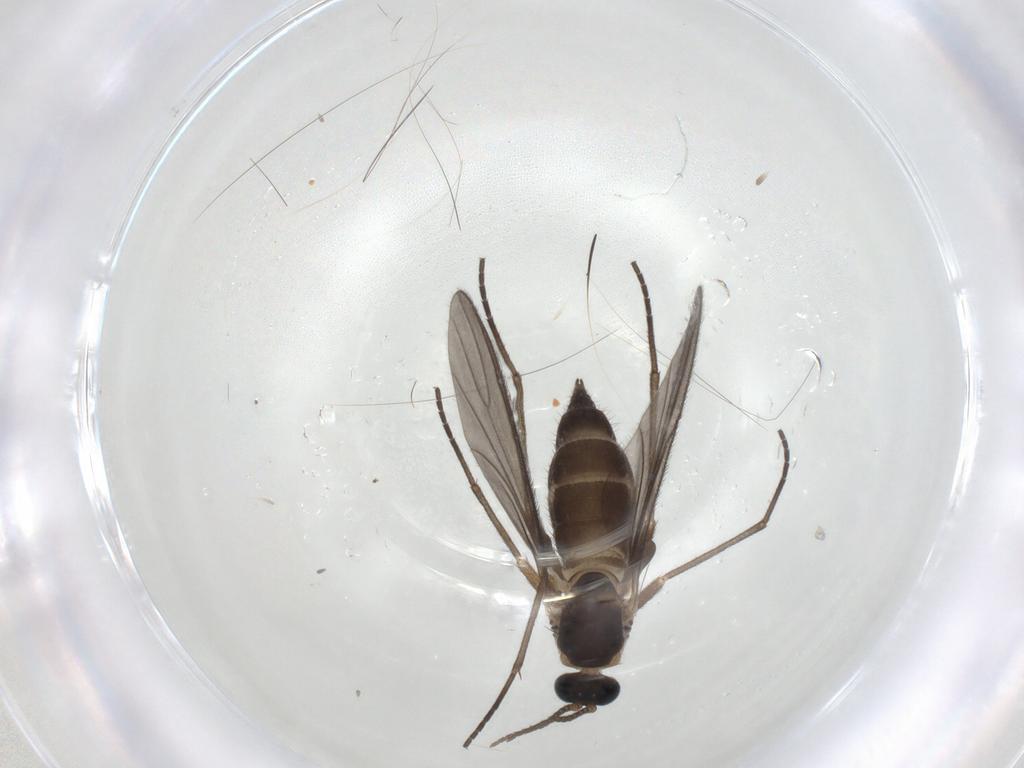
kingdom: Animalia
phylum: Arthropoda
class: Insecta
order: Diptera
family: Sciaridae
